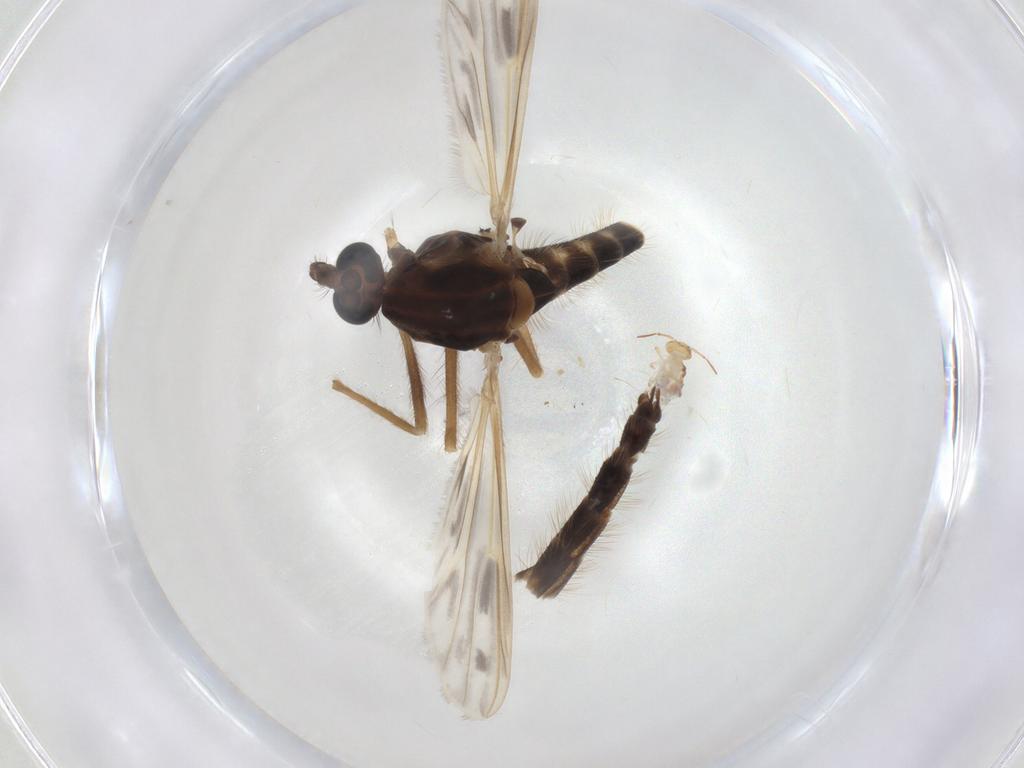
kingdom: Animalia
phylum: Arthropoda
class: Insecta
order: Diptera
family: Chironomidae
